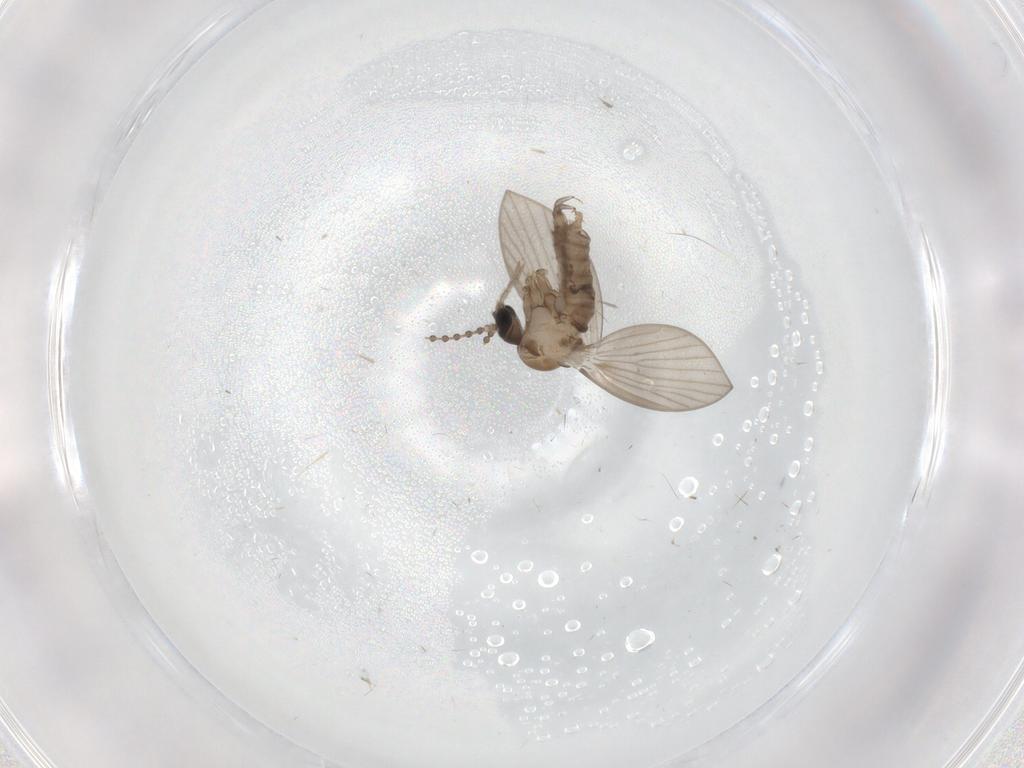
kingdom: Animalia
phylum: Arthropoda
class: Insecta
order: Diptera
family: Psychodidae
